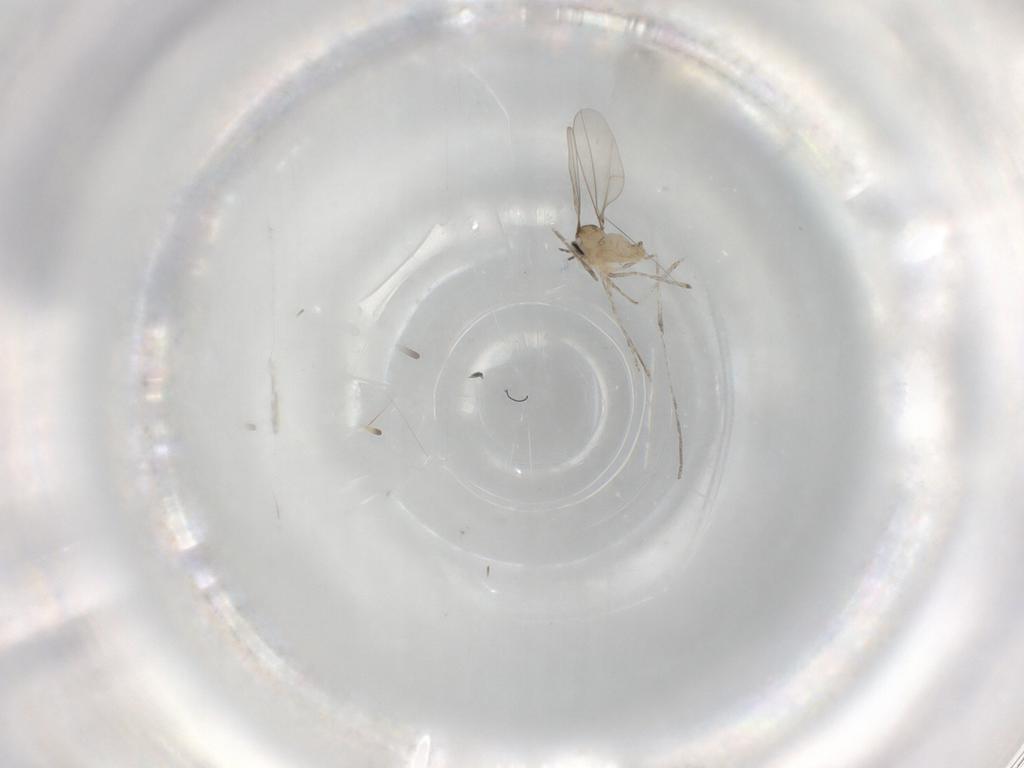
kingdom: Animalia
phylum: Arthropoda
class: Insecta
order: Diptera
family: Cecidomyiidae
